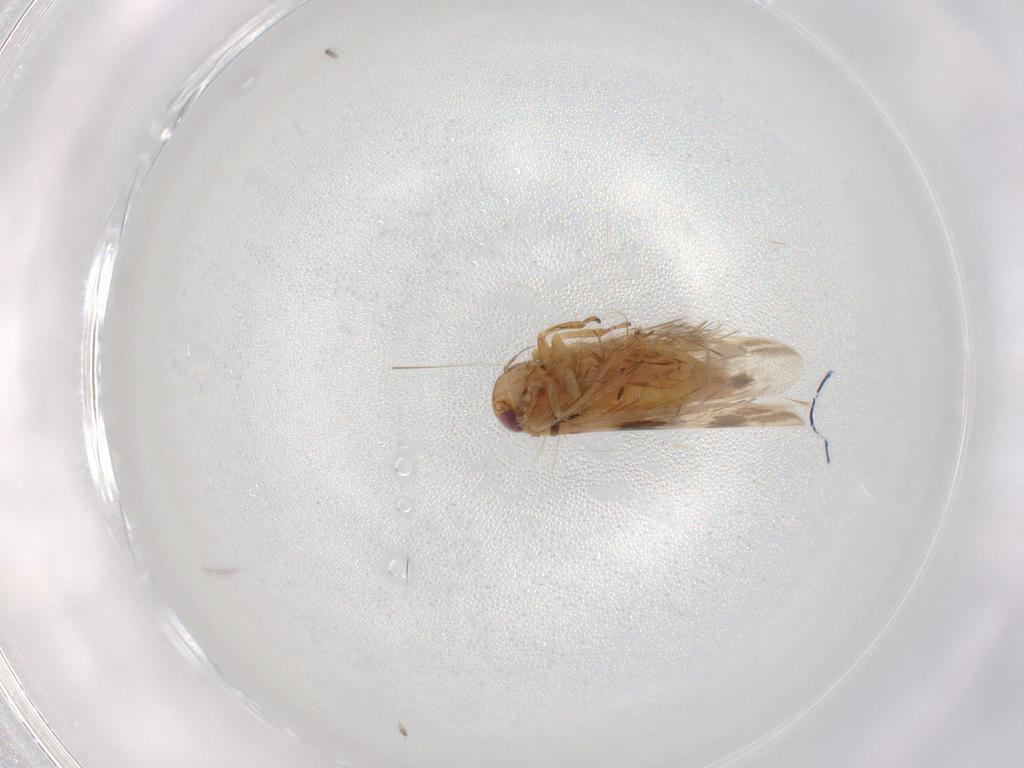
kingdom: Animalia
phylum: Arthropoda
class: Insecta
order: Hemiptera
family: Cicadellidae
